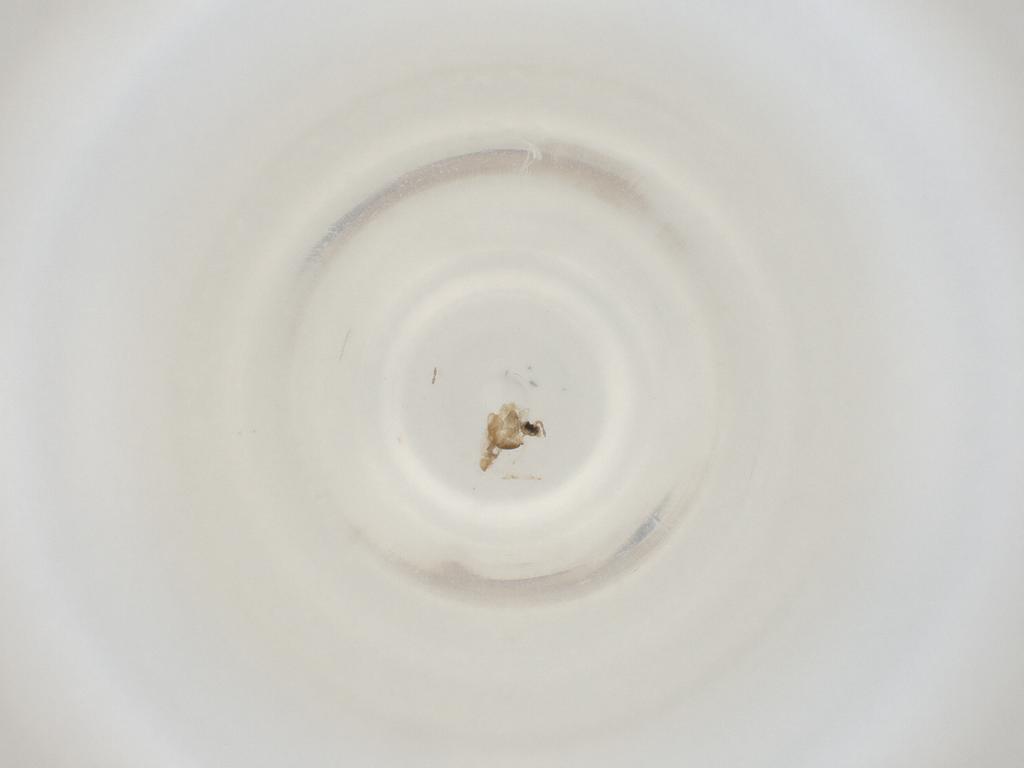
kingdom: Animalia
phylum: Arthropoda
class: Insecta
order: Diptera
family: Cecidomyiidae
